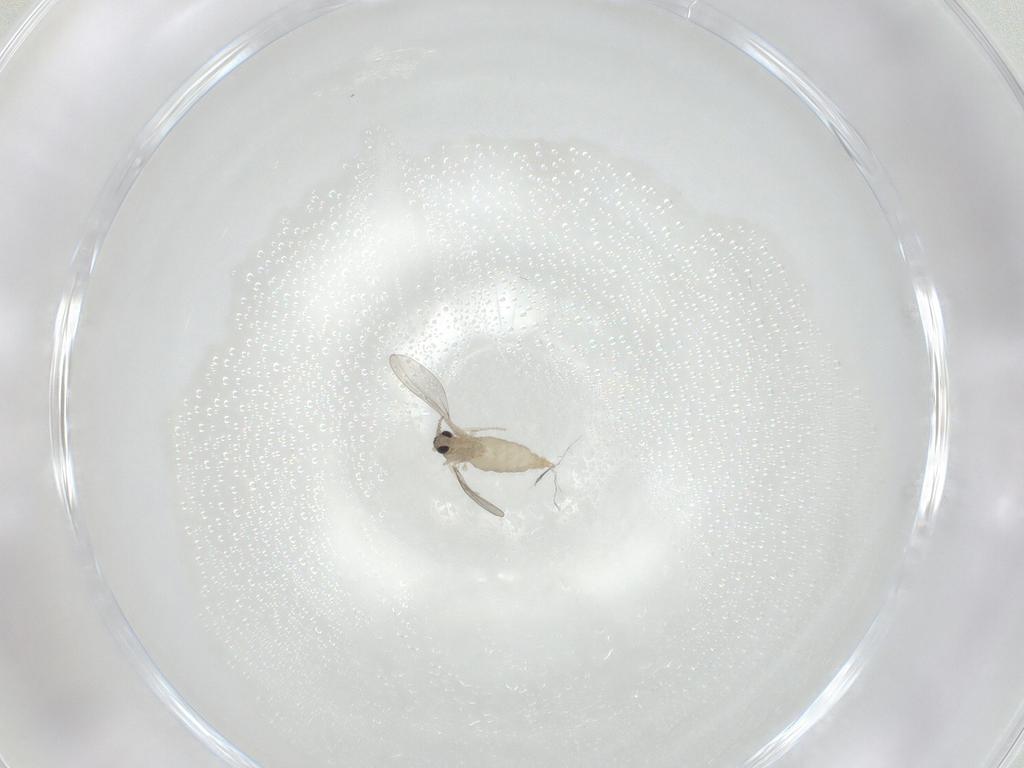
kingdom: Animalia
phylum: Arthropoda
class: Insecta
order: Diptera
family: Cecidomyiidae
